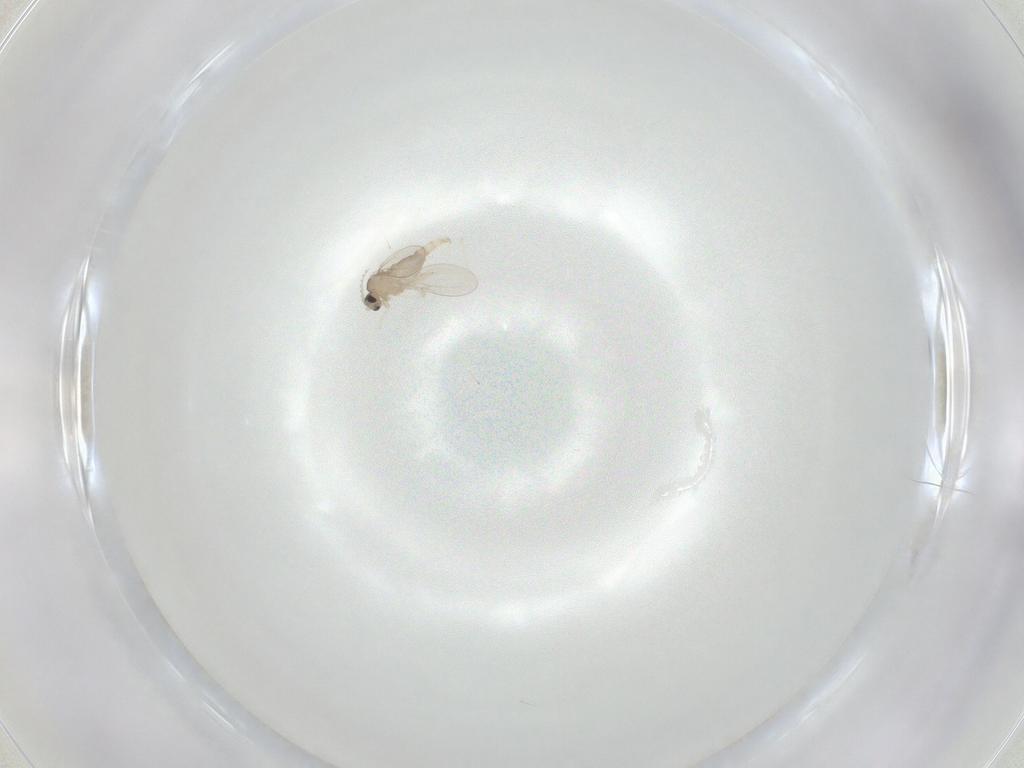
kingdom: Animalia
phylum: Arthropoda
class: Insecta
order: Diptera
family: Cecidomyiidae
